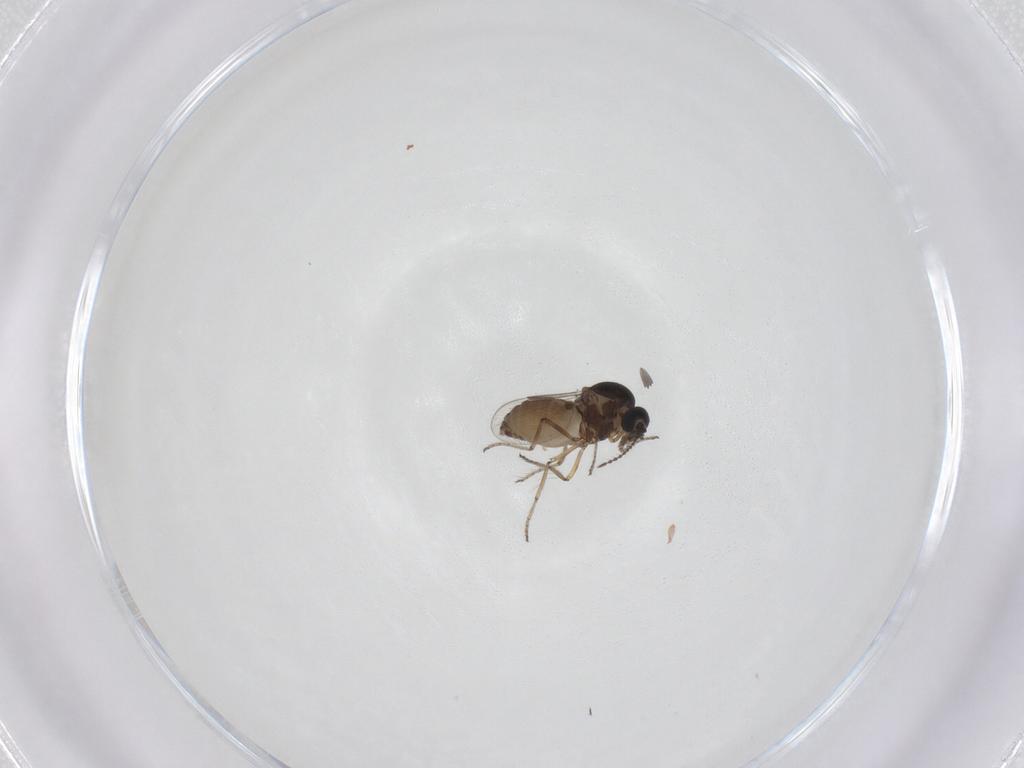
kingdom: Animalia
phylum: Arthropoda
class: Insecta
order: Diptera
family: Ceratopogonidae
